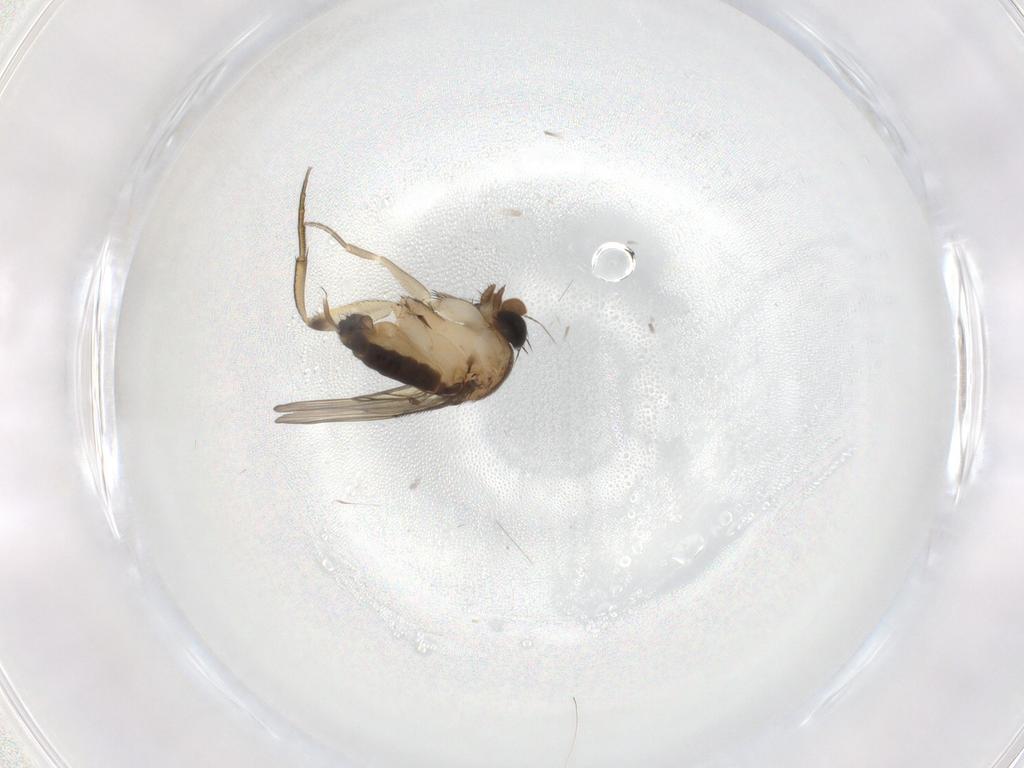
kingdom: Animalia
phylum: Arthropoda
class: Insecta
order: Diptera
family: Phoridae
